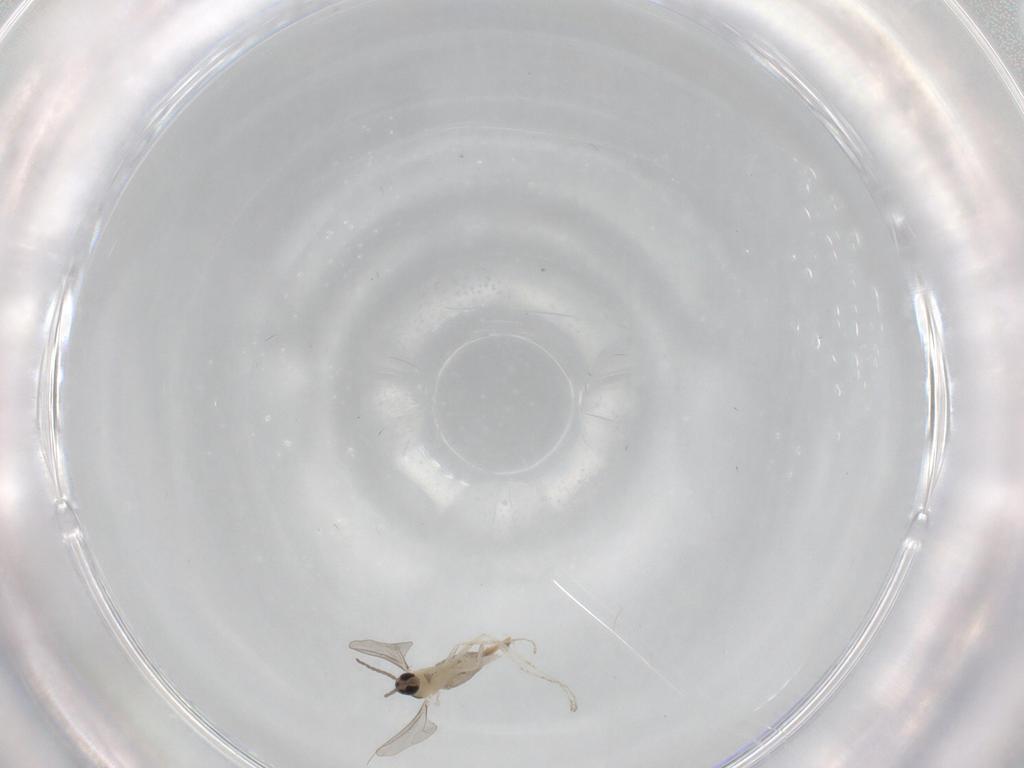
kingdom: Animalia
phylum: Arthropoda
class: Insecta
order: Diptera
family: Cecidomyiidae
